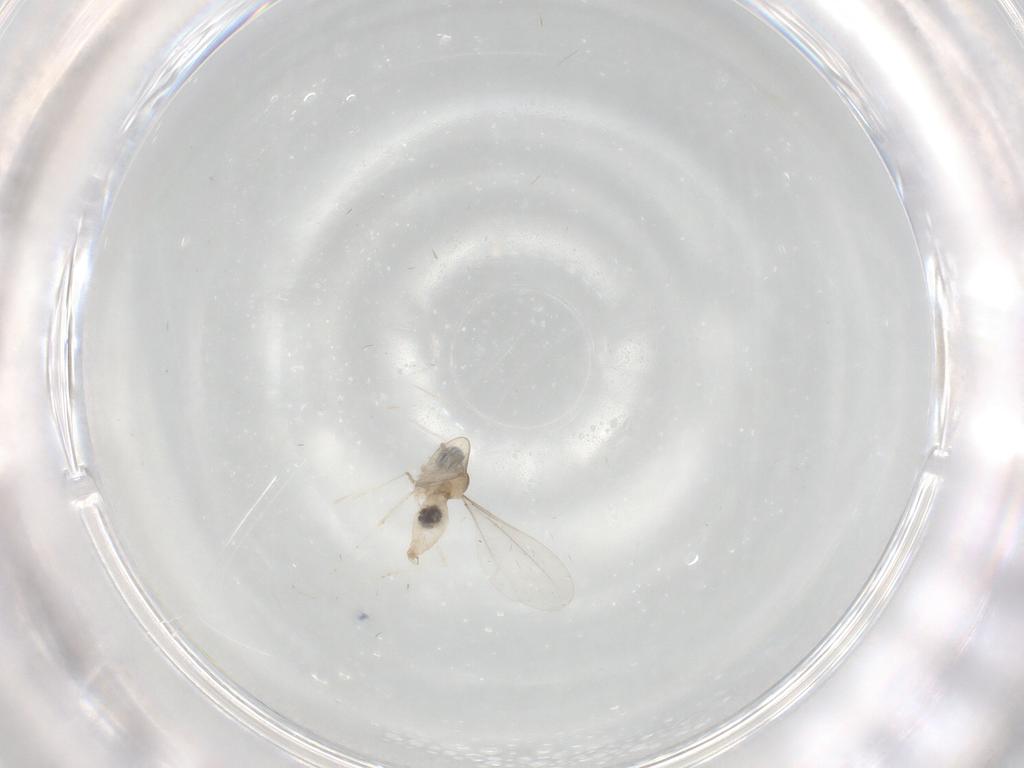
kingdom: Animalia
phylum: Arthropoda
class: Insecta
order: Diptera
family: Cecidomyiidae
